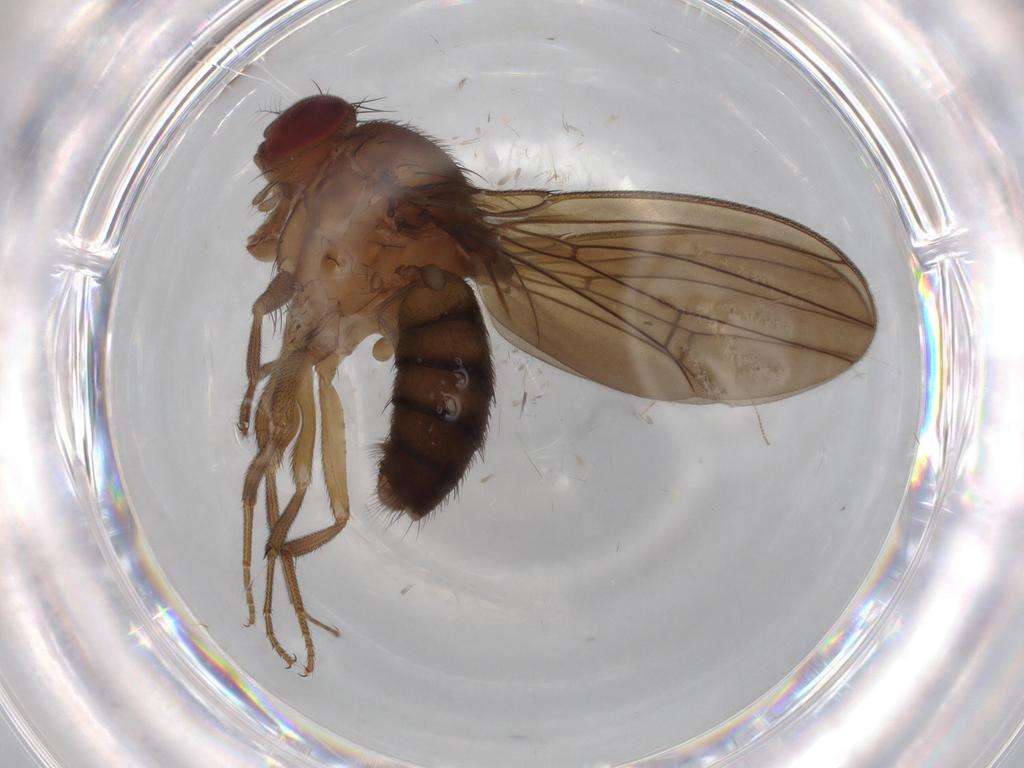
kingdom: Animalia
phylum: Arthropoda
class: Insecta
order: Diptera
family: Drosophilidae
